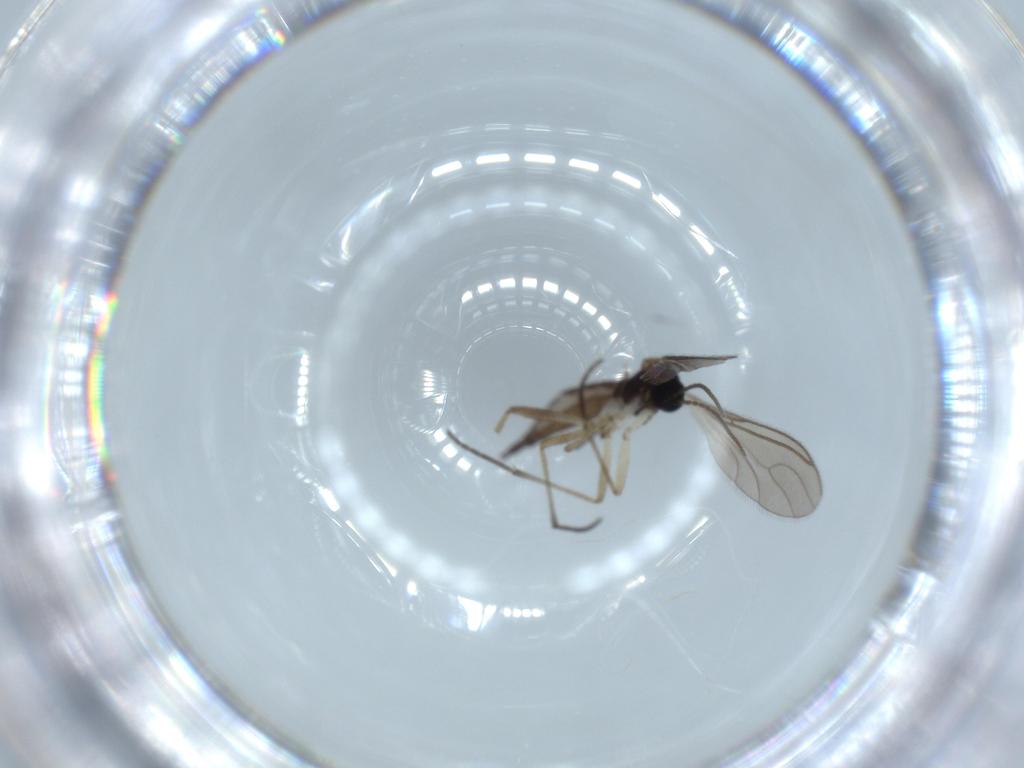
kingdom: Animalia
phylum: Arthropoda
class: Insecta
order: Diptera
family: Sciaridae
